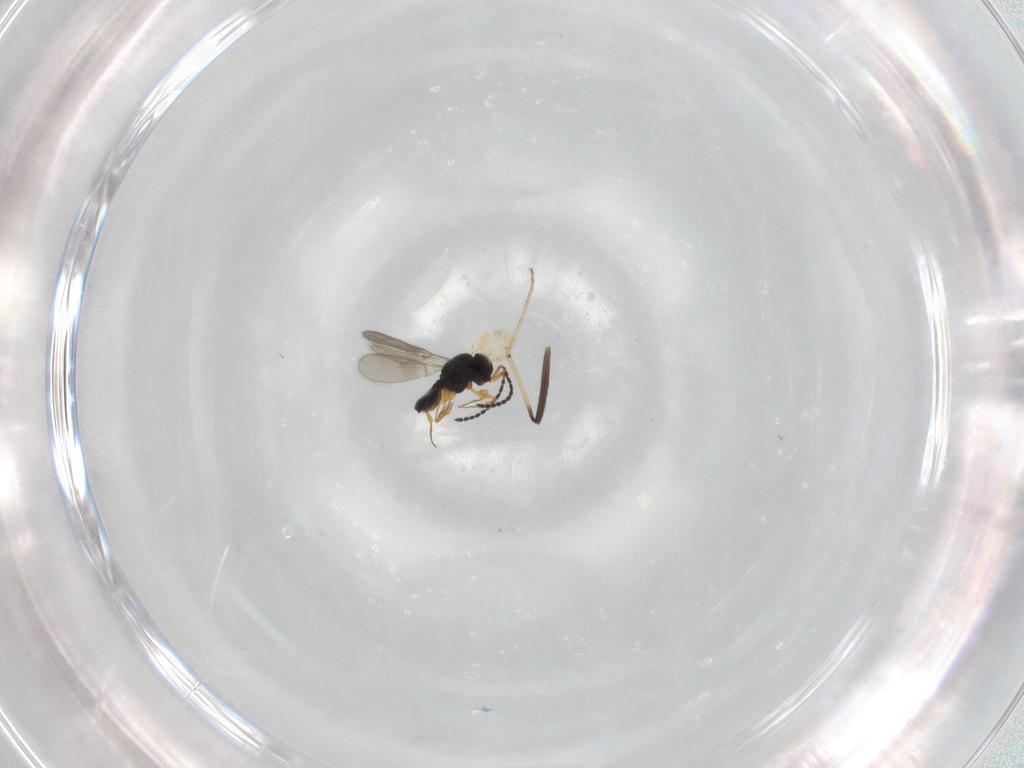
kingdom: Animalia
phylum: Arthropoda
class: Insecta
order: Hymenoptera
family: Scelionidae
